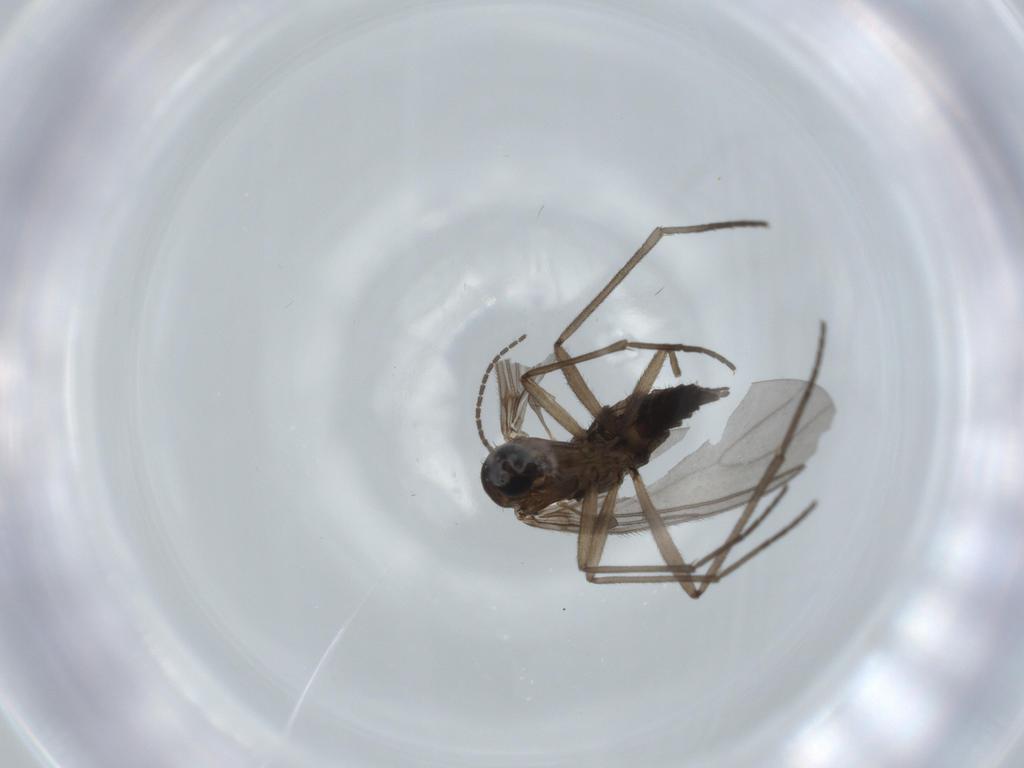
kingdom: Animalia
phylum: Arthropoda
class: Insecta
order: Diptera
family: Sciaridae
